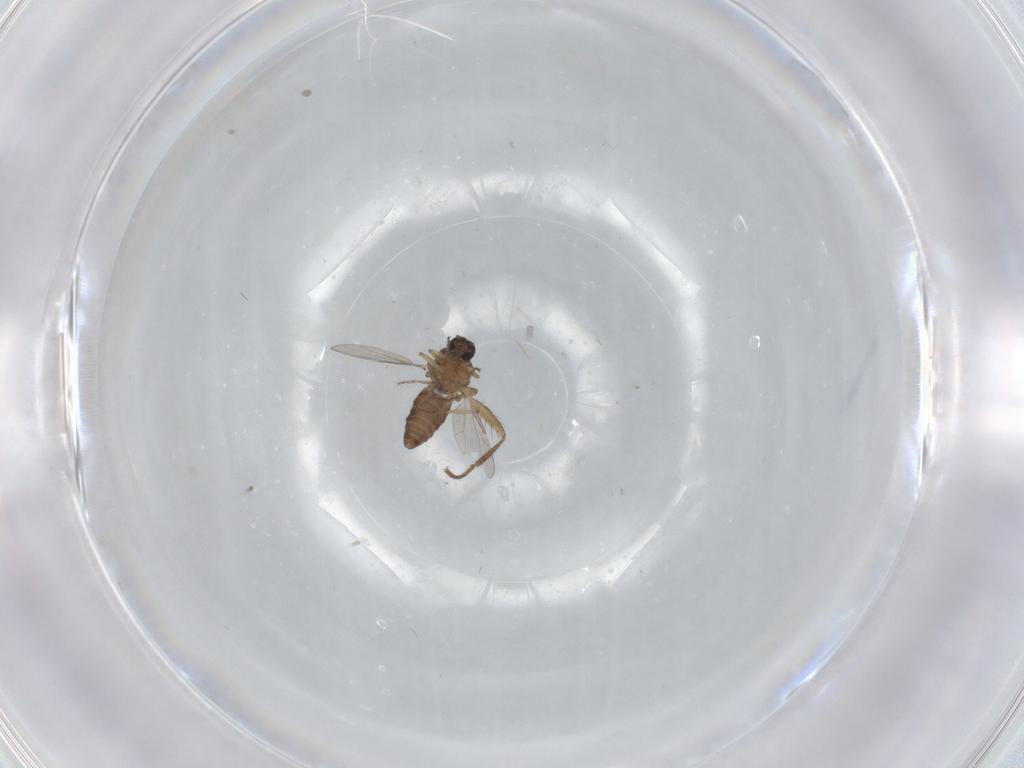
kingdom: Animalia
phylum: Arthropoda
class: Insecta
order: Diptera
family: Ceratopogonidae
